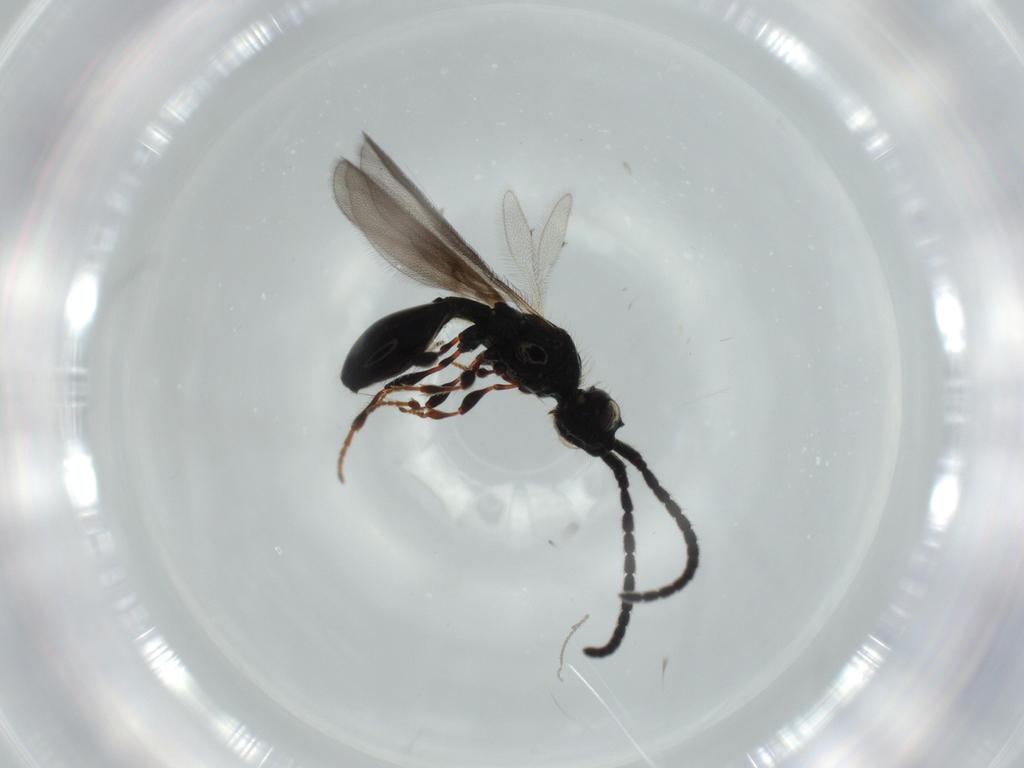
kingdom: Animalia
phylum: Arthropoda
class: Insecta
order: Hymenoptera
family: Diapriidae
